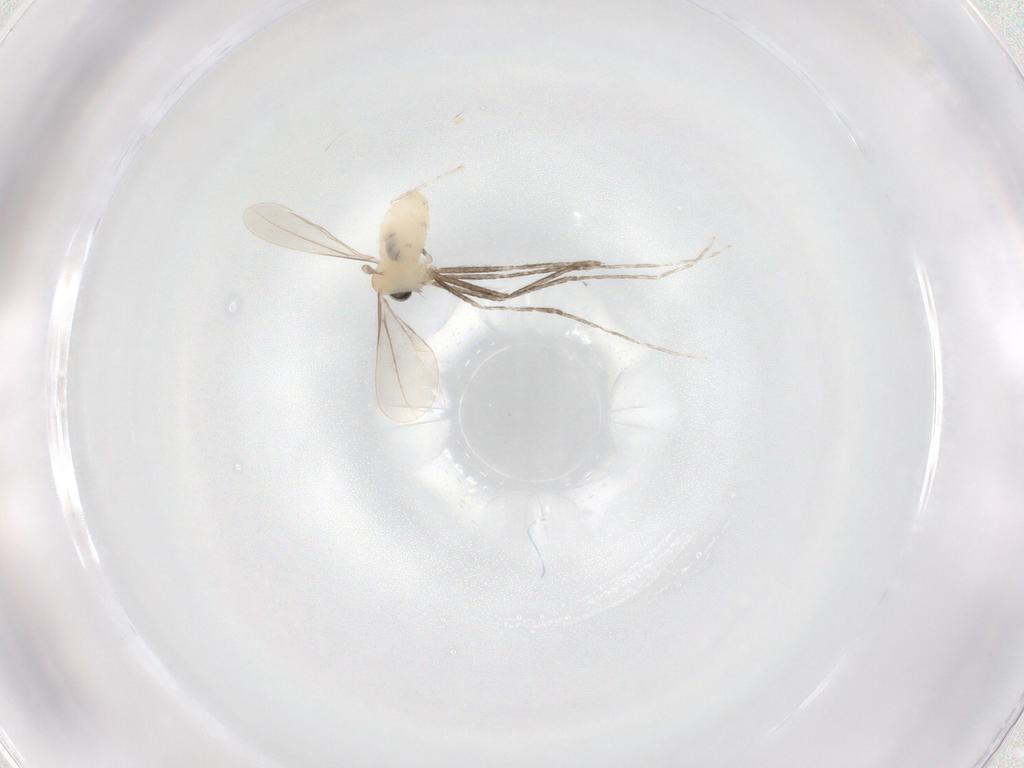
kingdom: Animalia
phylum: Arthropoda
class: Insecta
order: Diptera
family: Cecidomyiidae
